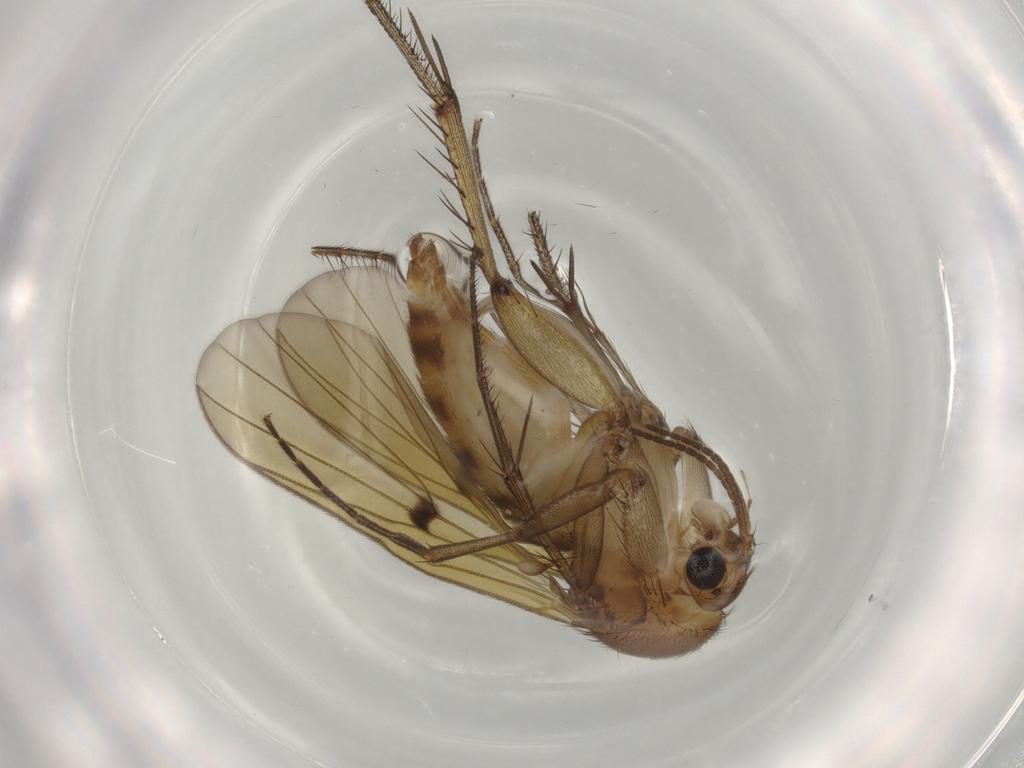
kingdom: Animalia
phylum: Arthropoda
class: Insecta
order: Diptera
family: Mycetophilidae
